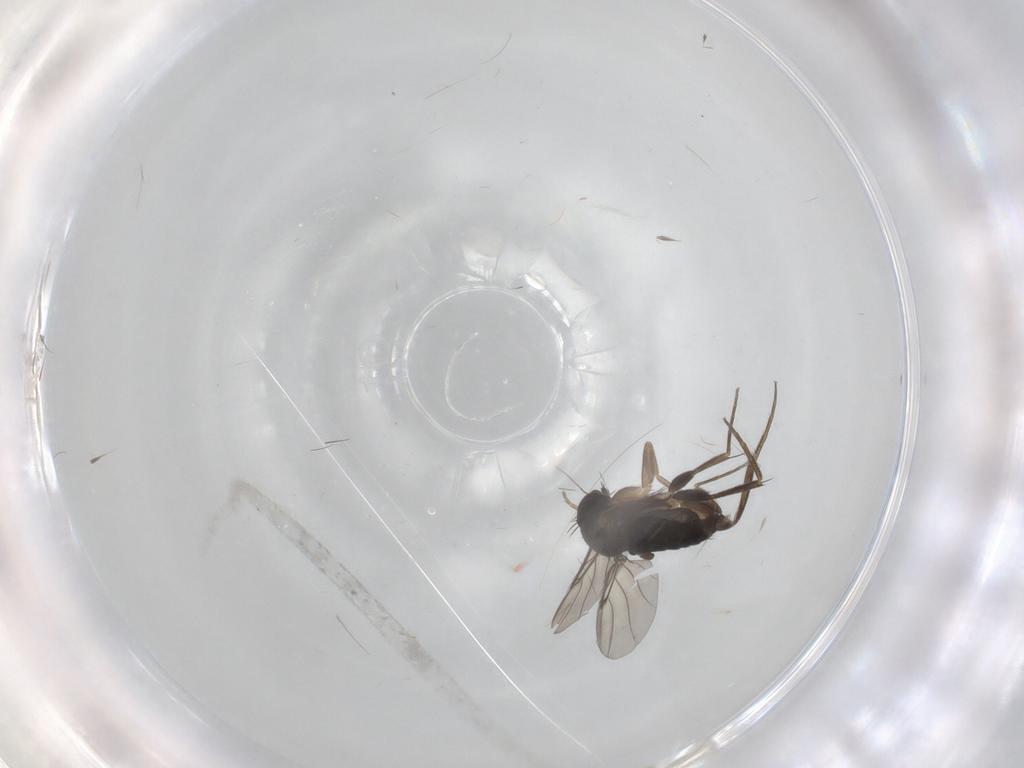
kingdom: Animalia
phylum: Arthropoda
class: Insecta
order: Diptera
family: Phoridae
